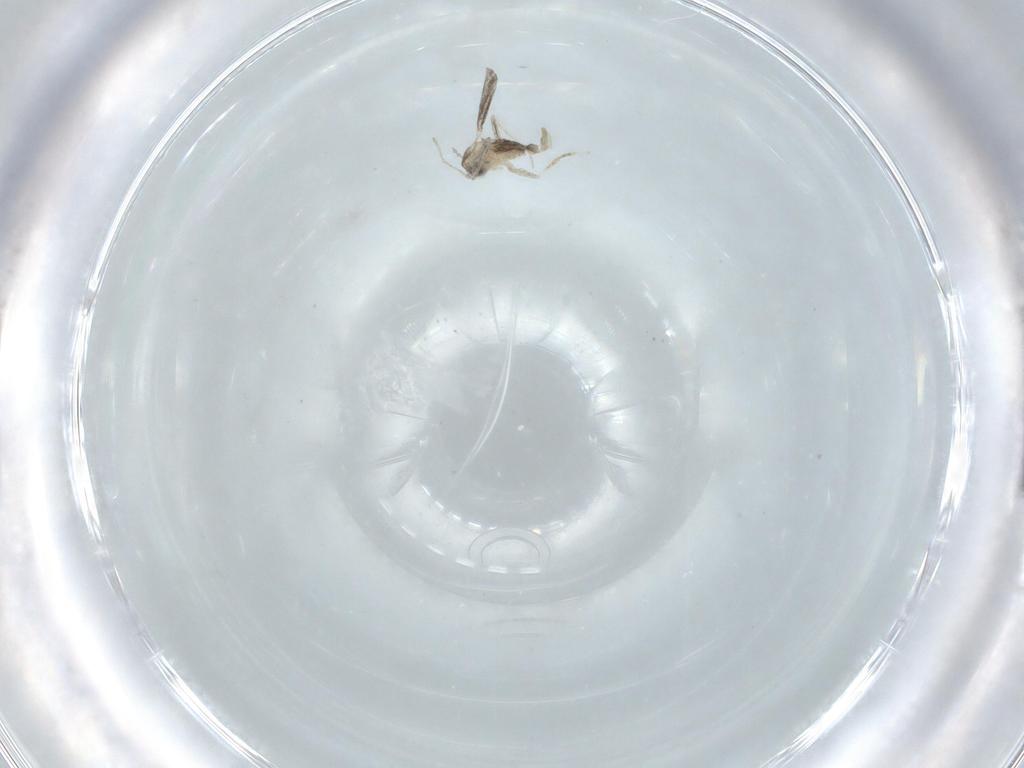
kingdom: Animalia
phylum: Arthropoda
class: Insecta
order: Diptera
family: Cecidomyiidae
